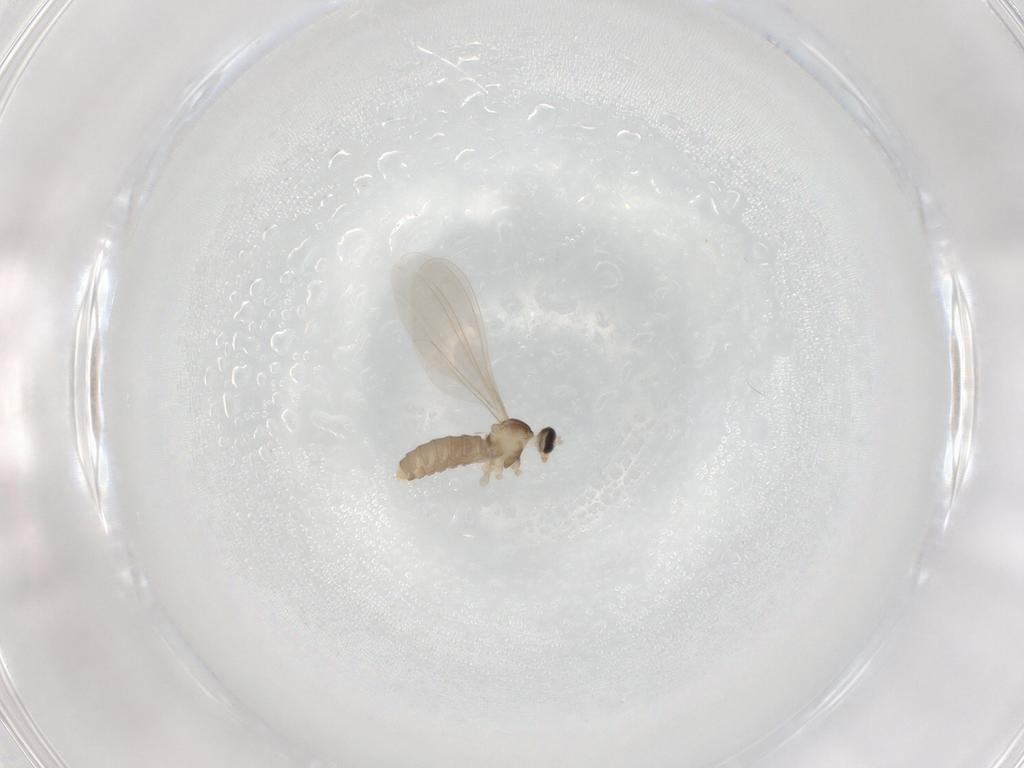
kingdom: Animalia
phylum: Arthropoda
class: Insecta
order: Diptera
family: Cecidomyiidae
